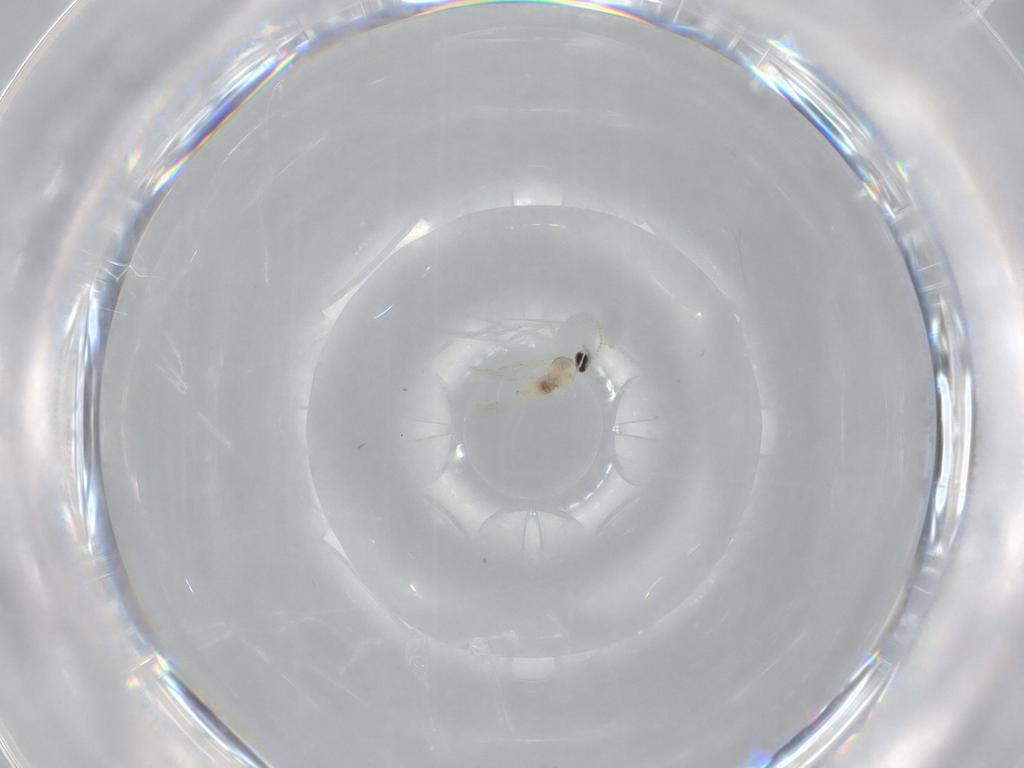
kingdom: Animalia
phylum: Arthropoda
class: Insecta
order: Diptera
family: Cecidomyiidae
